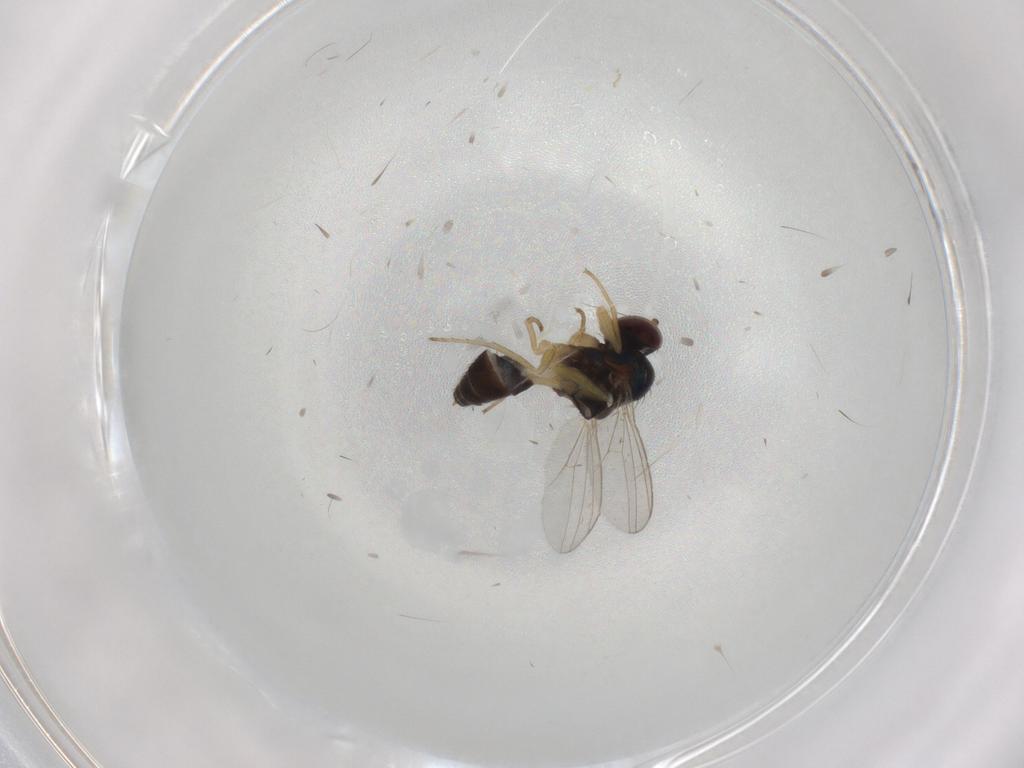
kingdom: Animalia
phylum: Arthropoda
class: Insecta
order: Diptera
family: Dolichopodidae
